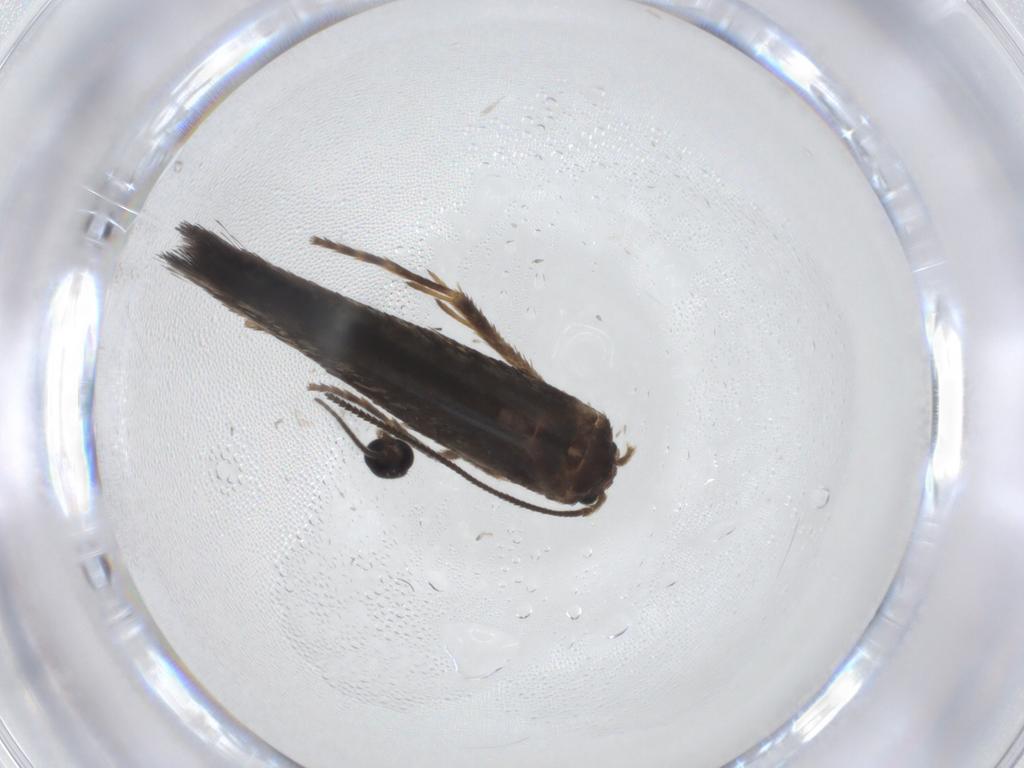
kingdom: Animalia
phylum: Arthropoda
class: Insecta
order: Lepidoptera
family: Nepticulidae
